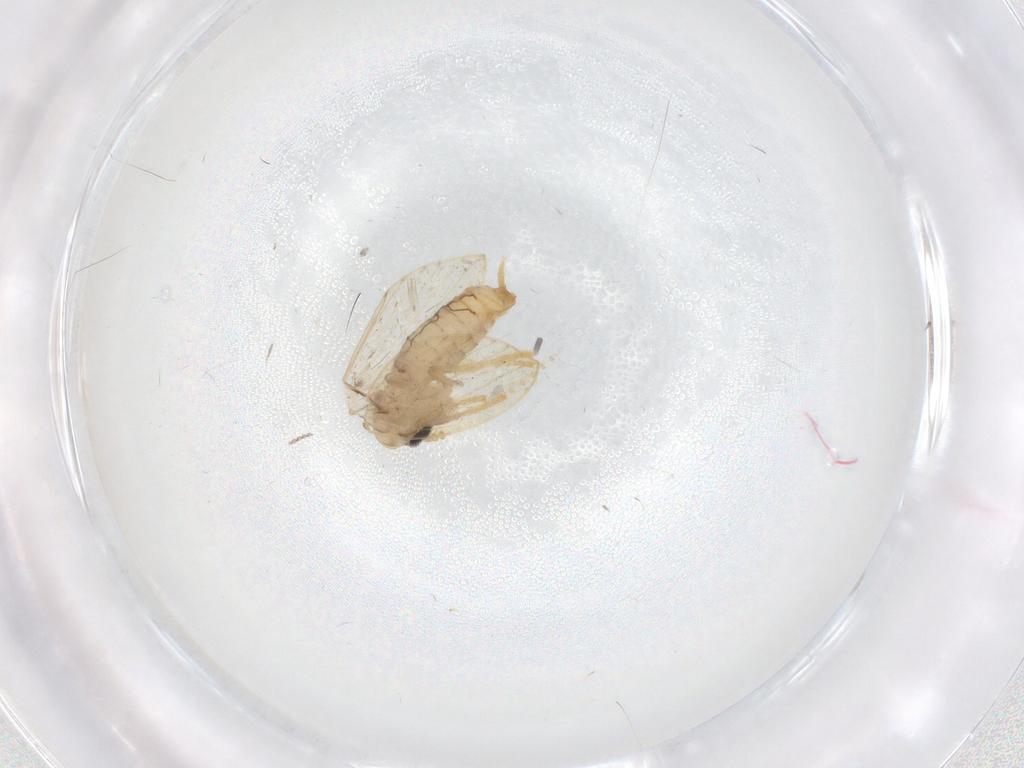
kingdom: Animalia
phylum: Arthropoda
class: Insecta
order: Diptera
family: Psychodidae
